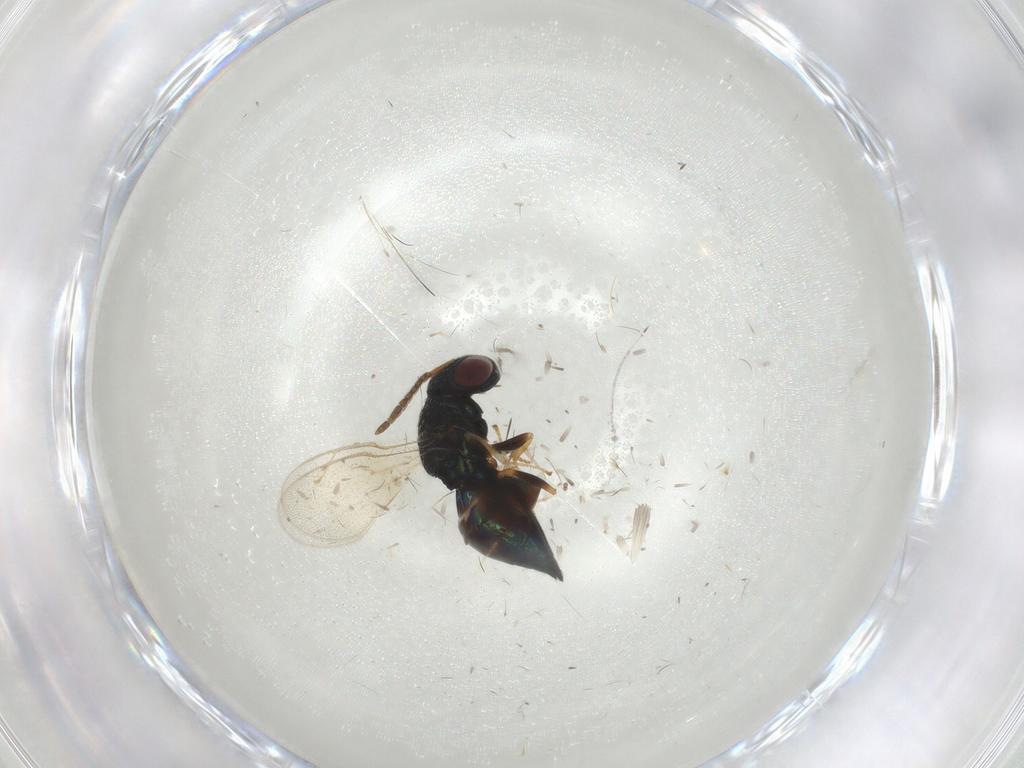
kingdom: Animalia
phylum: Arthropoda
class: Insecta
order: Hymenoptera
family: Pteromalidae
